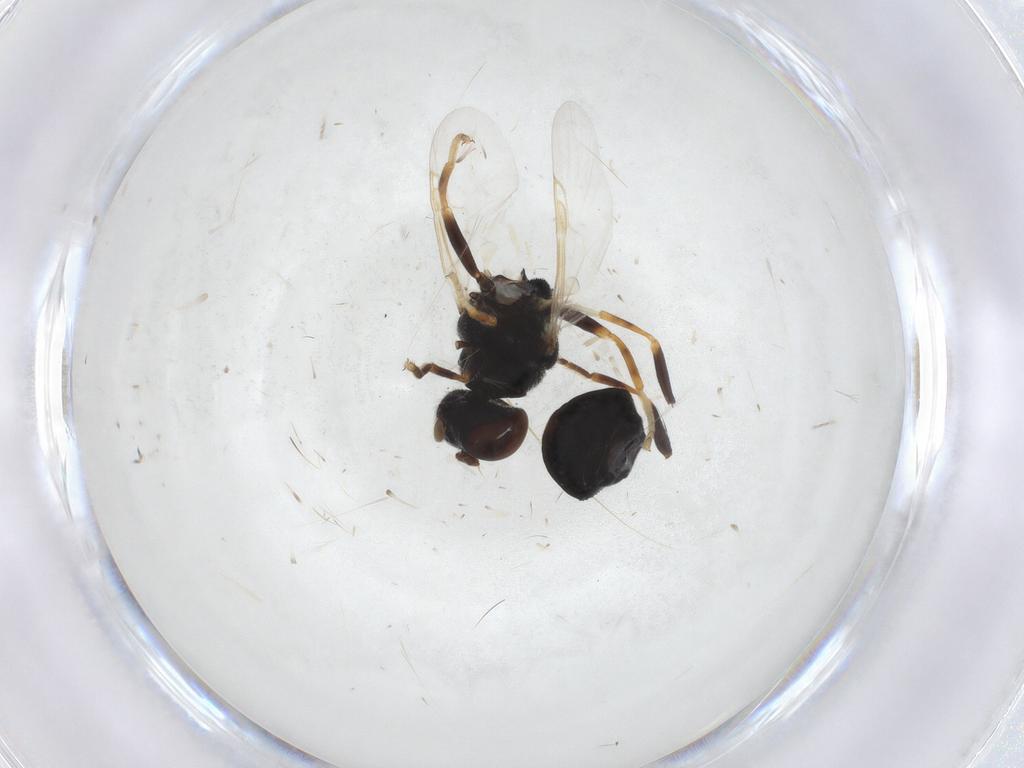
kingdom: Animalia
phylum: Arthropoda
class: Insecta
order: Diptera
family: Stratiomyidae
